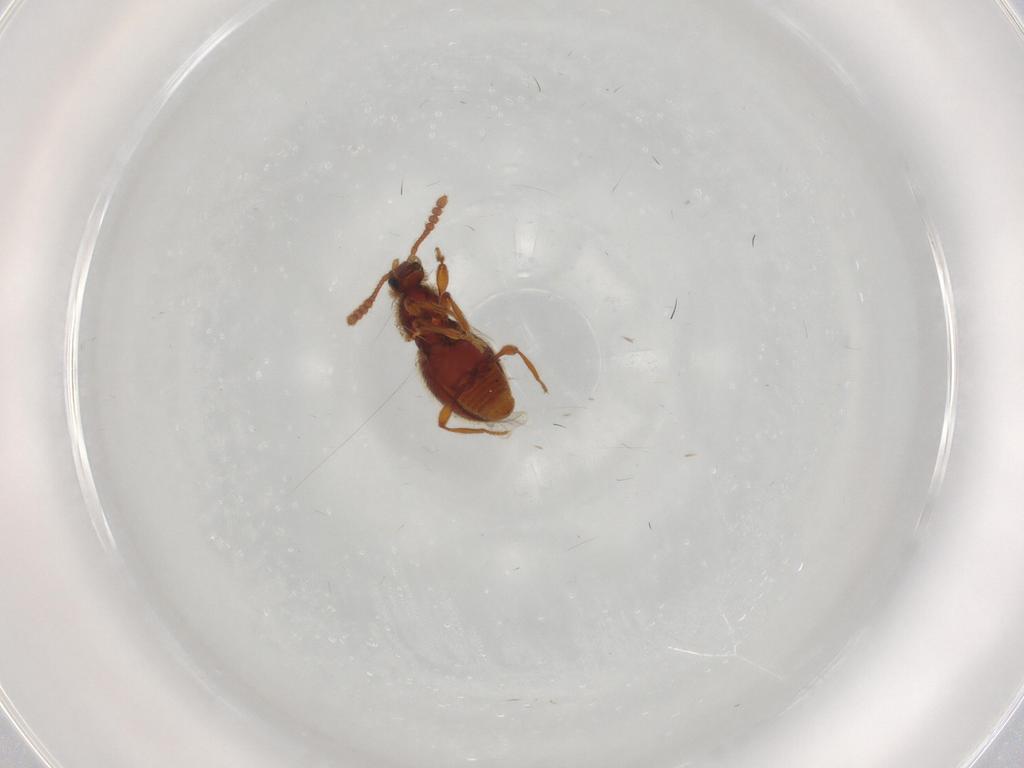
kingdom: Animalia
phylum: Arthropoda
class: Insecta
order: Coleoptera
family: Staphylinidae
